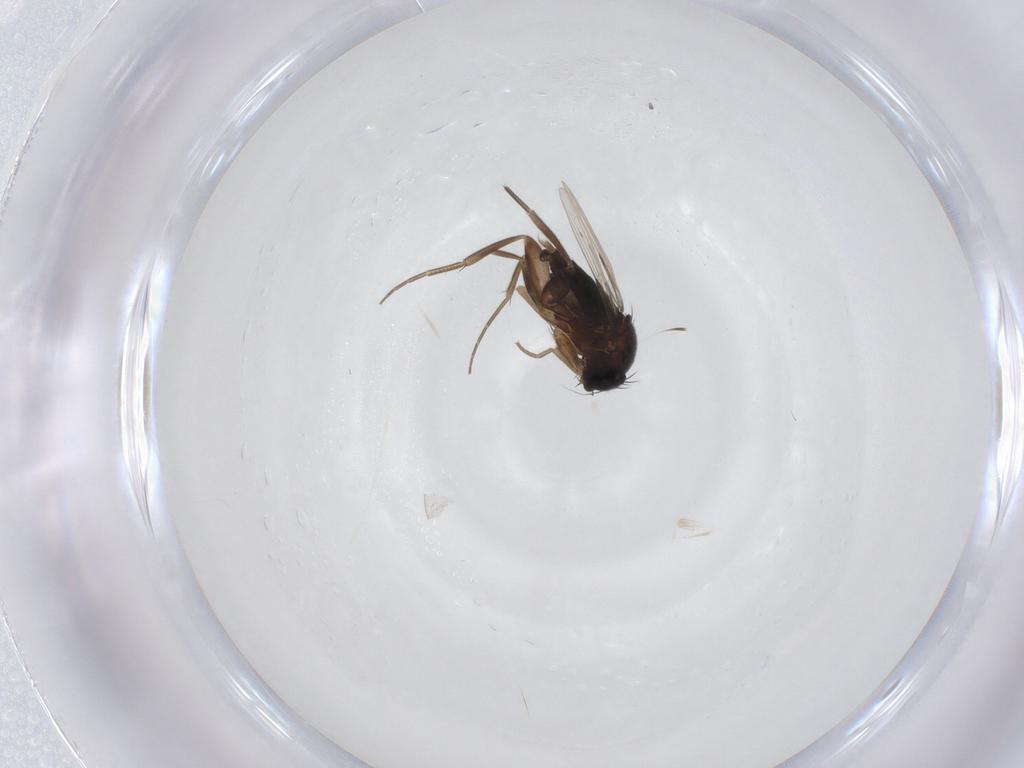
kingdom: Animalia
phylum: Arthropoda
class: Insecta
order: Diptera
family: Phoridae
